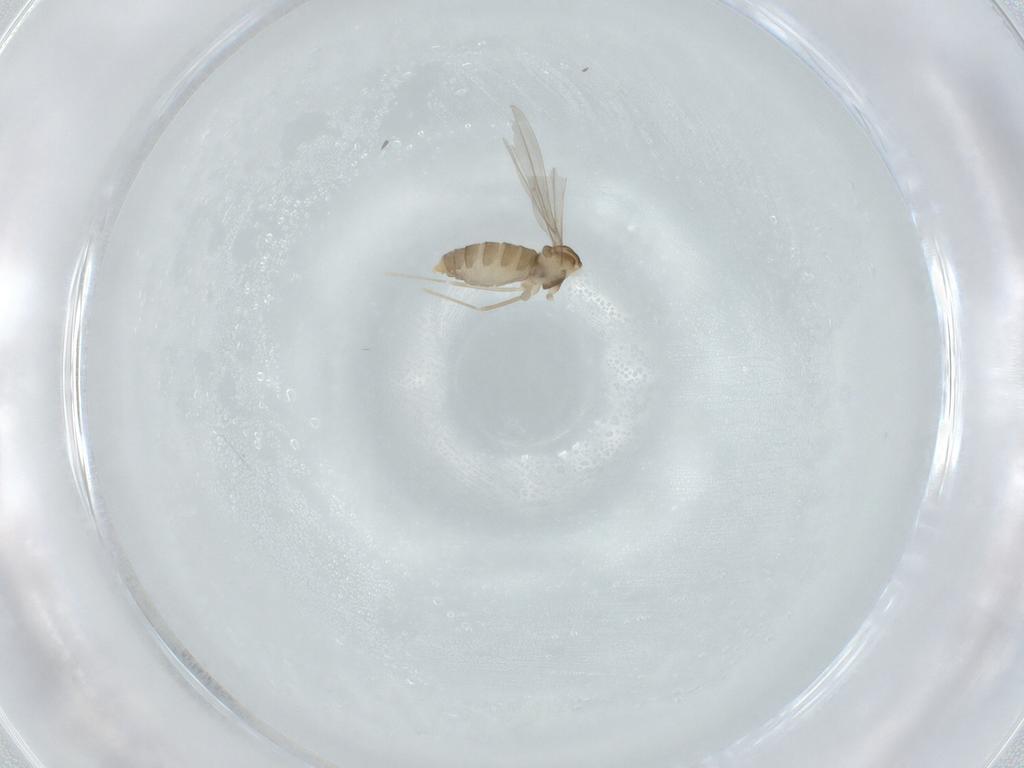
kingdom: Animalia
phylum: Arthropoda
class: Insecta
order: Diptera
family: Cecidomyiidae
